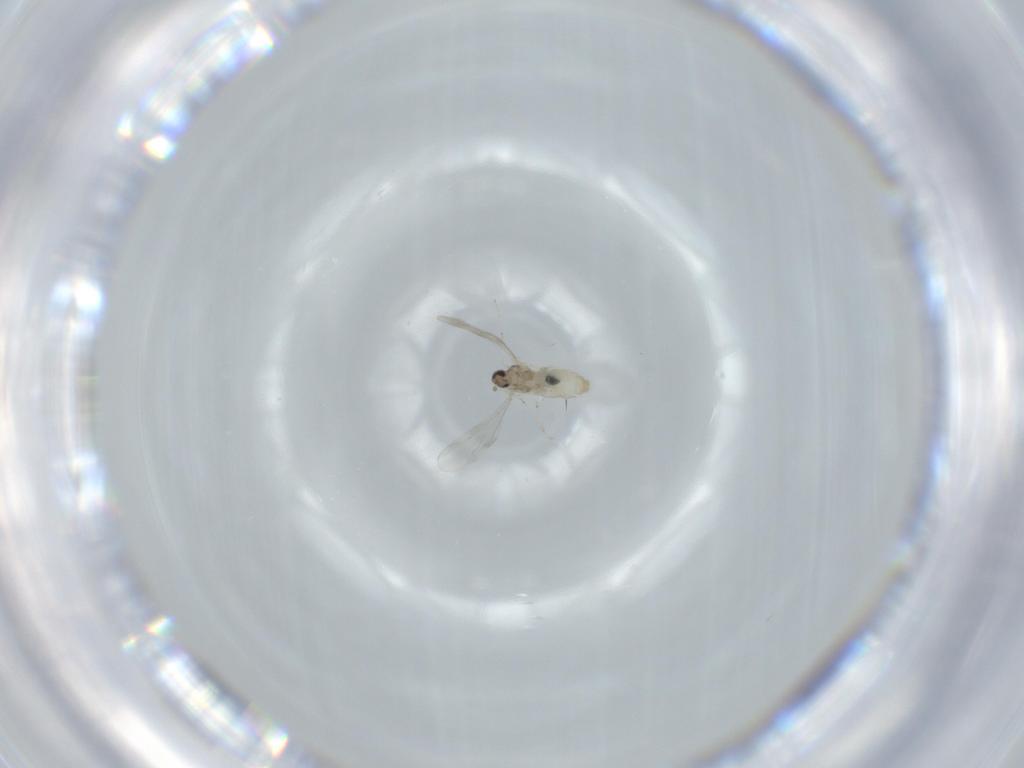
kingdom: Animalia
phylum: Arthropoda
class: Insecta
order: Diptera
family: Cecidomyiidae
